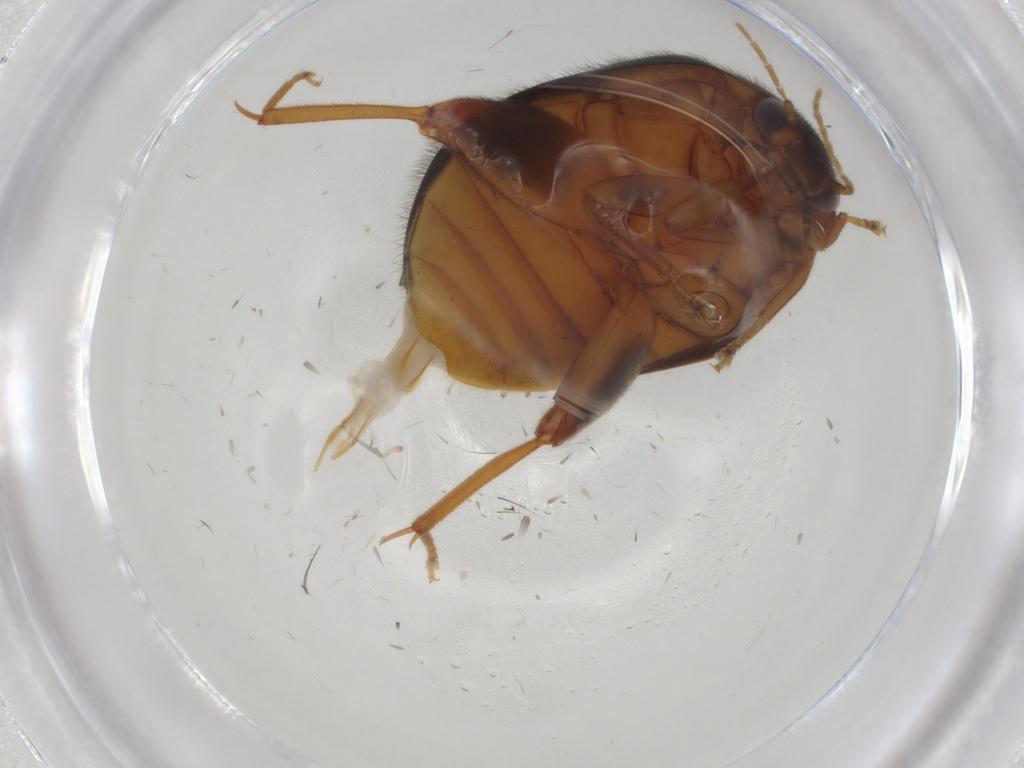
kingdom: Animalia
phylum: Arthropoda
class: Insecta
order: Coleoptera
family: Scirtidae
